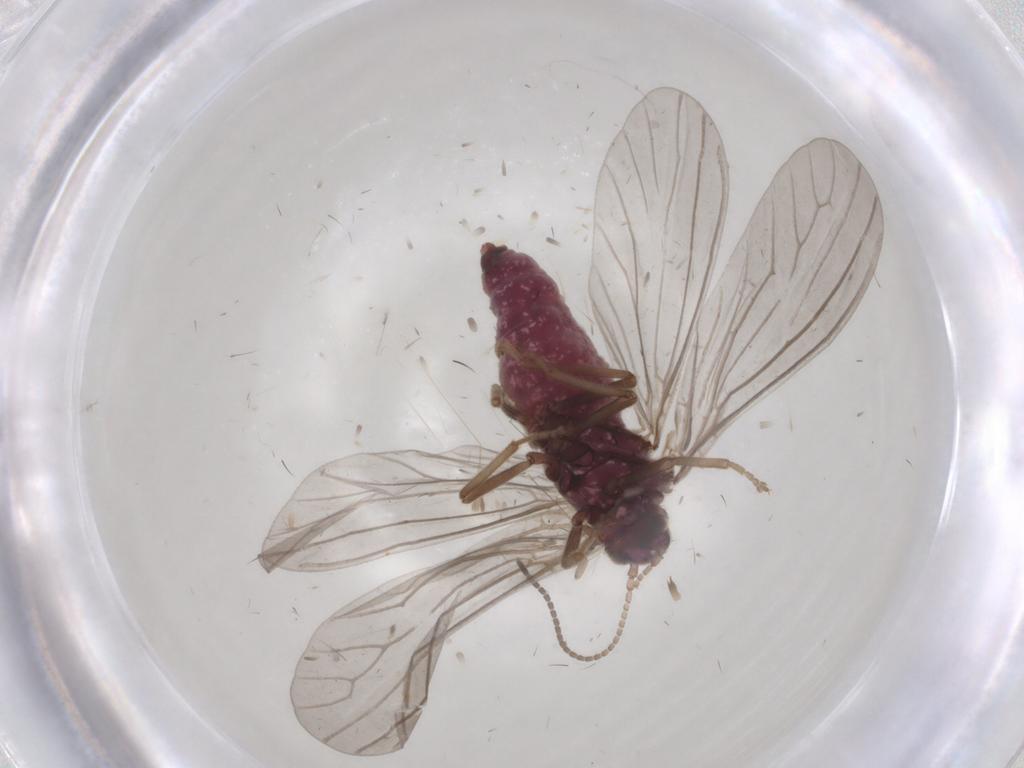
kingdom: Animalia
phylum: Arthropoda
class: Insecta
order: Neuroptera
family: Coniopterygidae
